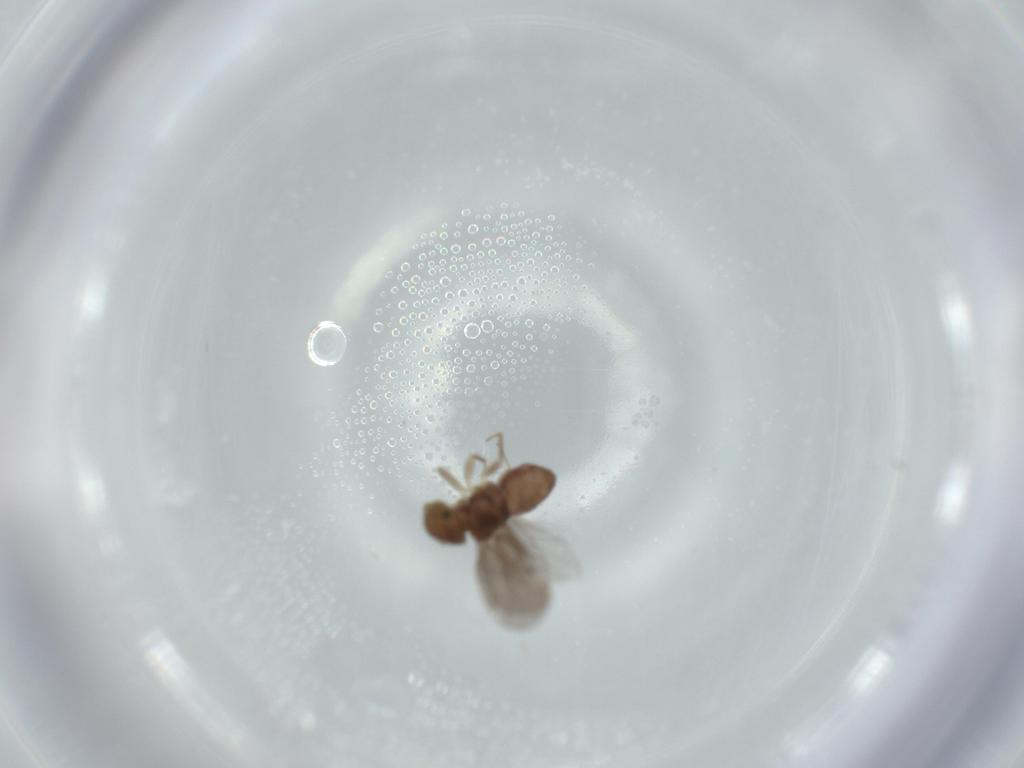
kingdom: Animalia
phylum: Arthropoda
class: Insecta
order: Psocodea
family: Ectopsocidae
